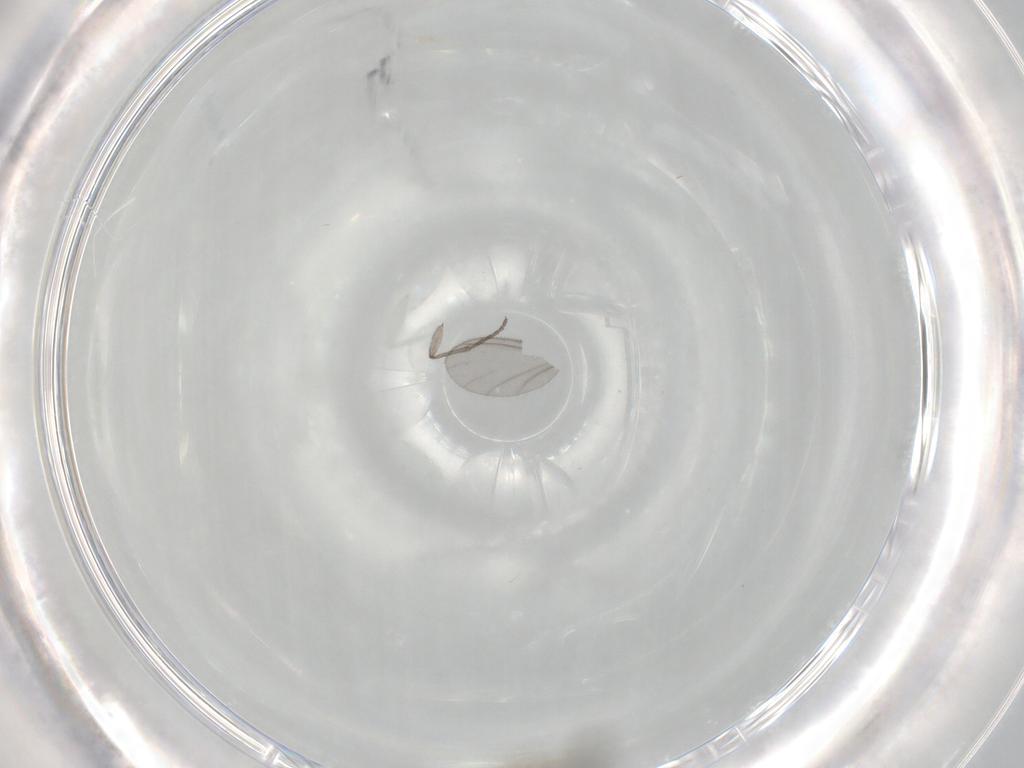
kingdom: Animalia
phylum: Arthropoda
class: Insecta
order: Diptera
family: Sciaridae
